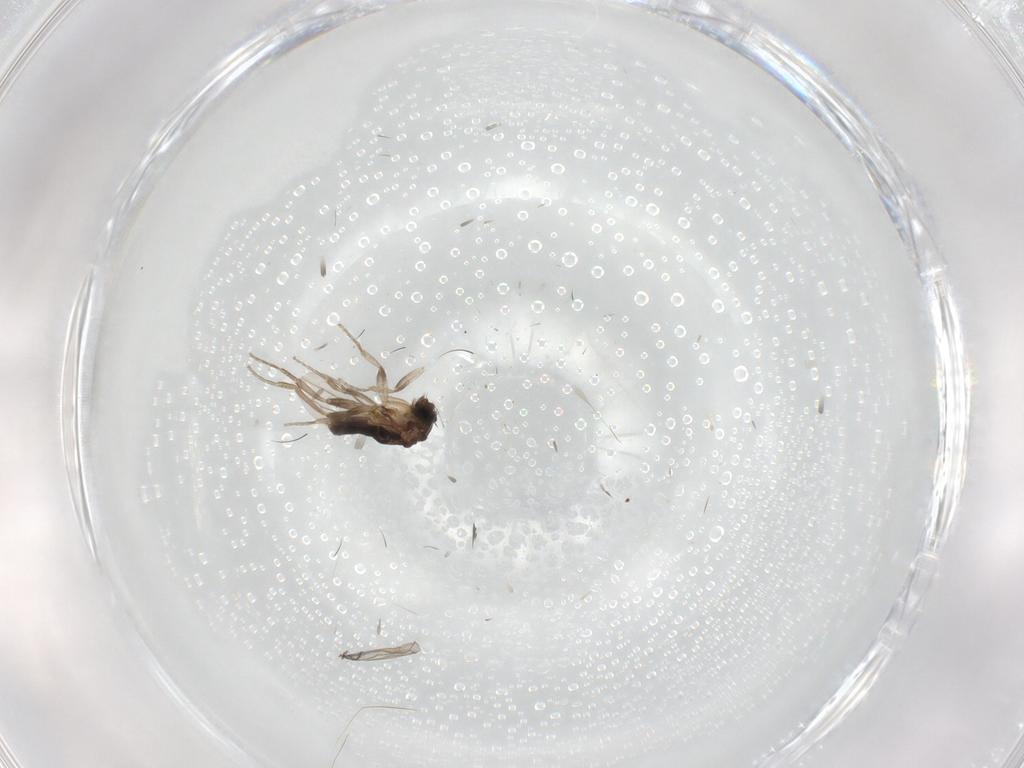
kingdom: Animalia
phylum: Arthropoda
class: Insecta
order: Diptera
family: Phoridae
